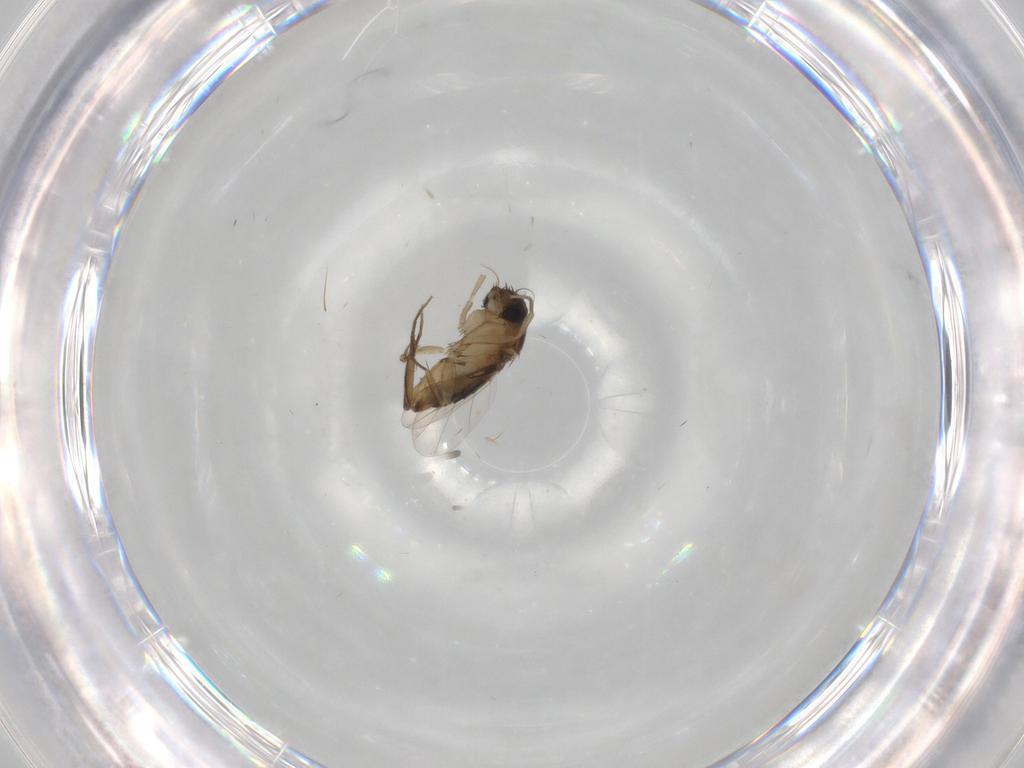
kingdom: Animalia
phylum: Arthropoda
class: Insecta
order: Diptera
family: Phoridae
